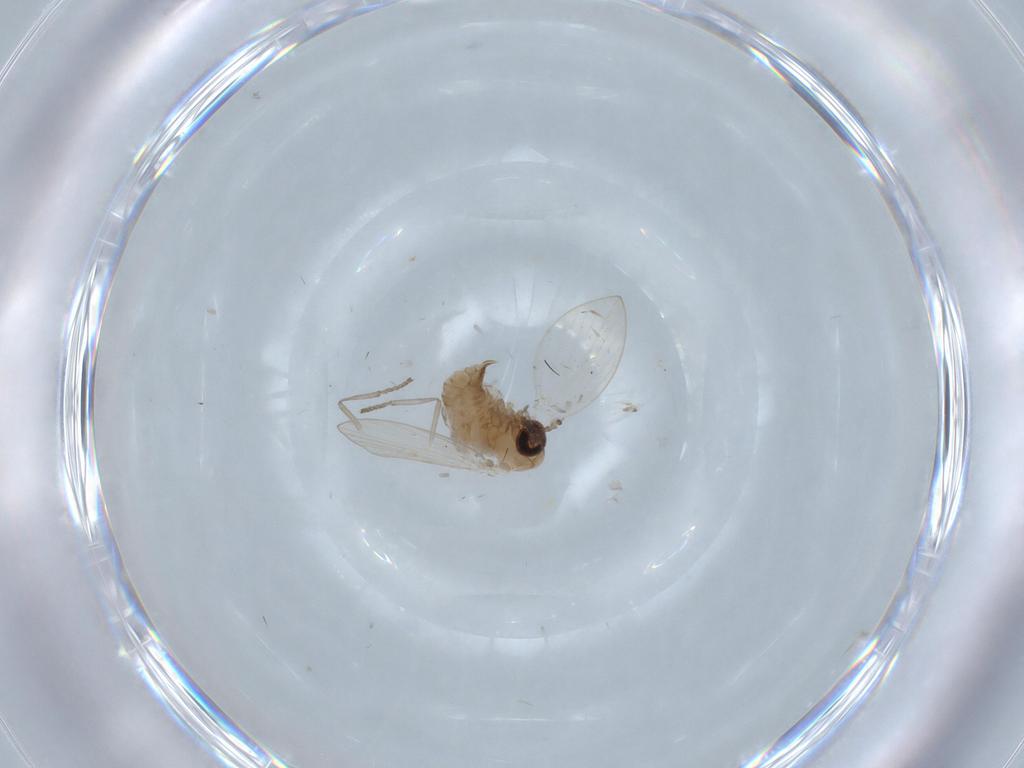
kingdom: Animalia
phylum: Arthropoda
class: Insecta
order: Diptera
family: Psychodidae
